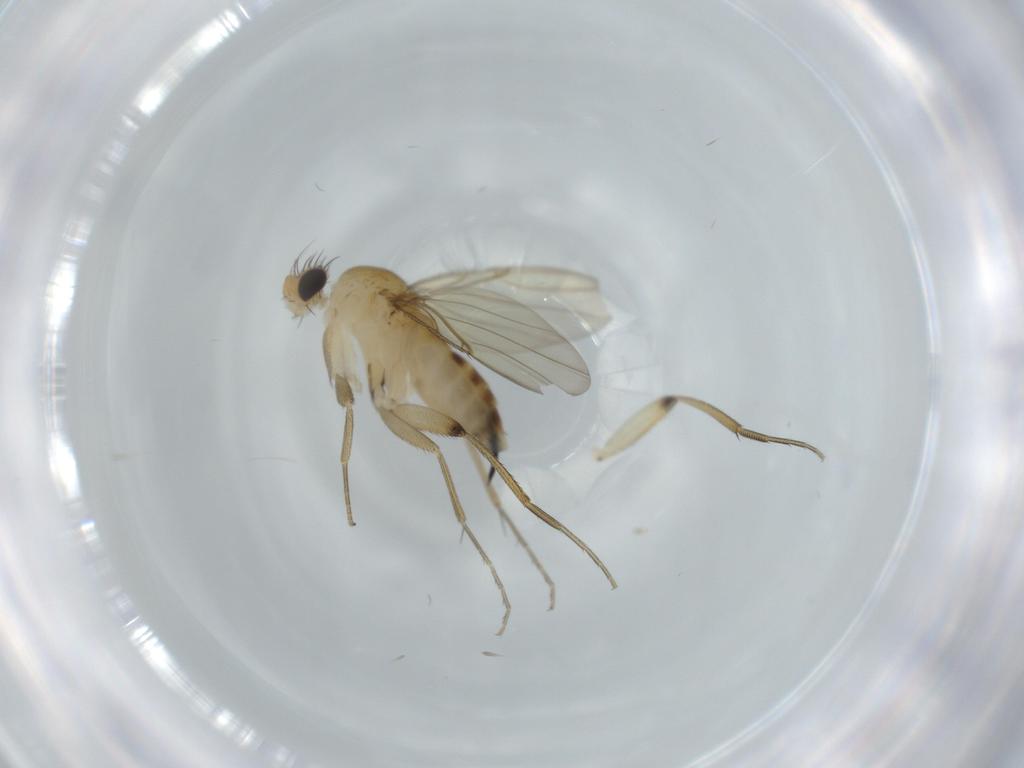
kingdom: Animalia
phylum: Arthropoda
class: Insecta
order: Diptera
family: Phoridae
